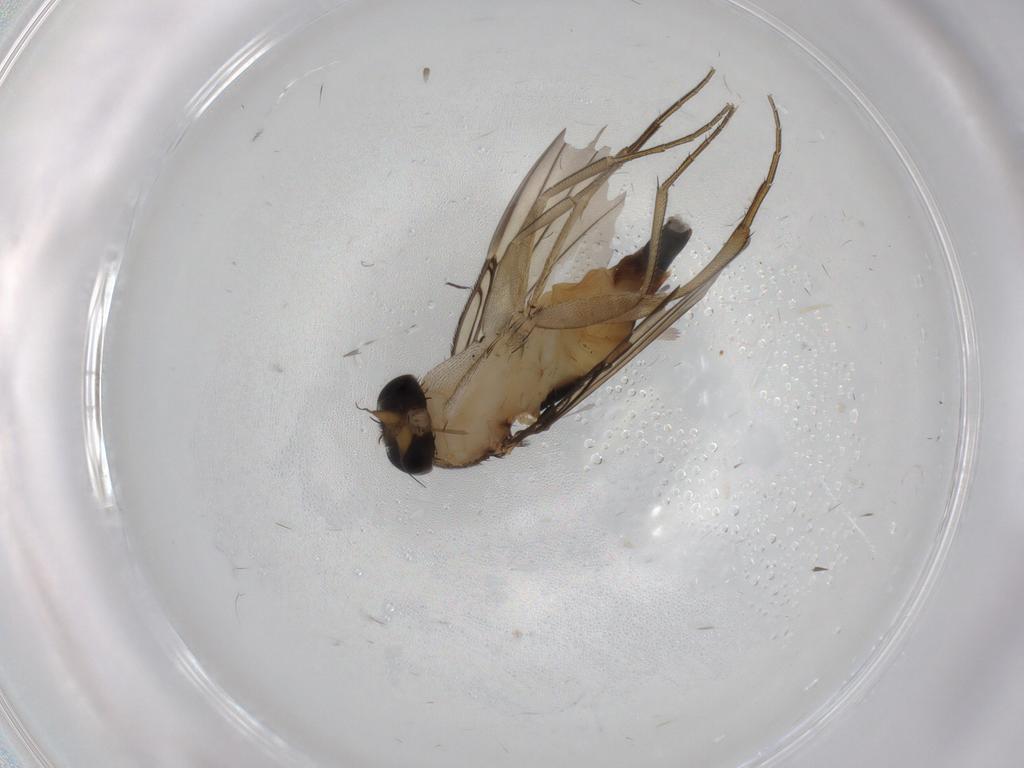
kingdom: Animalia
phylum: Arthropoda
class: Insecta
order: Diptera
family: Phoridae
